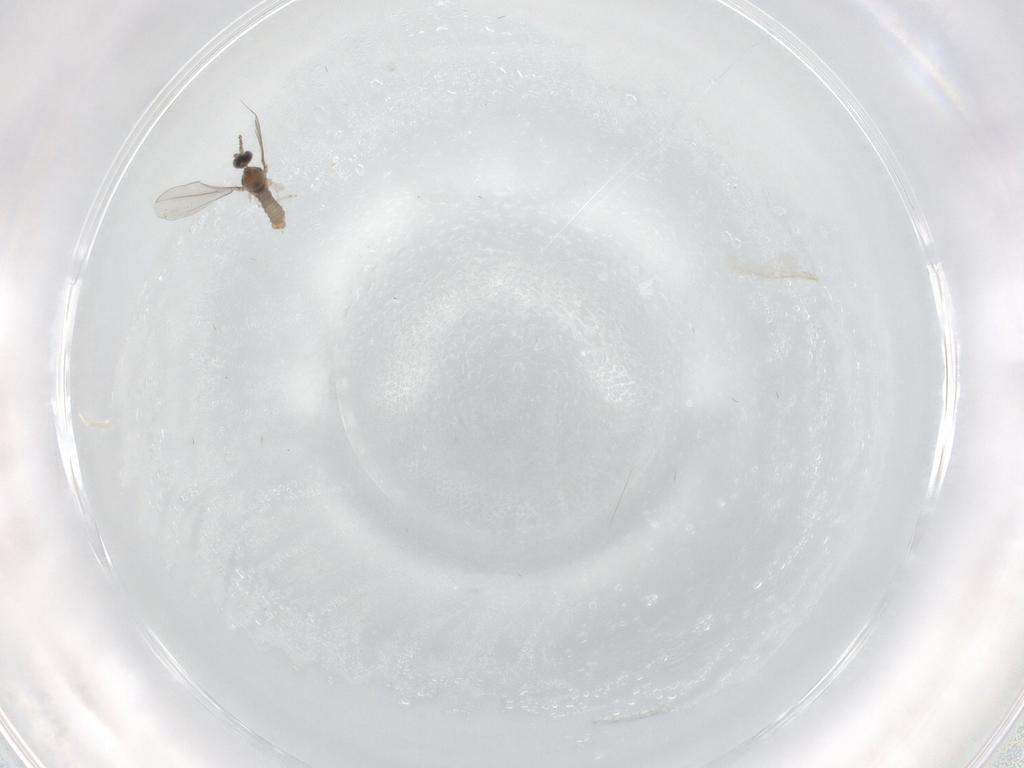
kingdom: Animalia
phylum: Arthropoda
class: Insecta
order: Diptera
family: Cecidomyiidae
